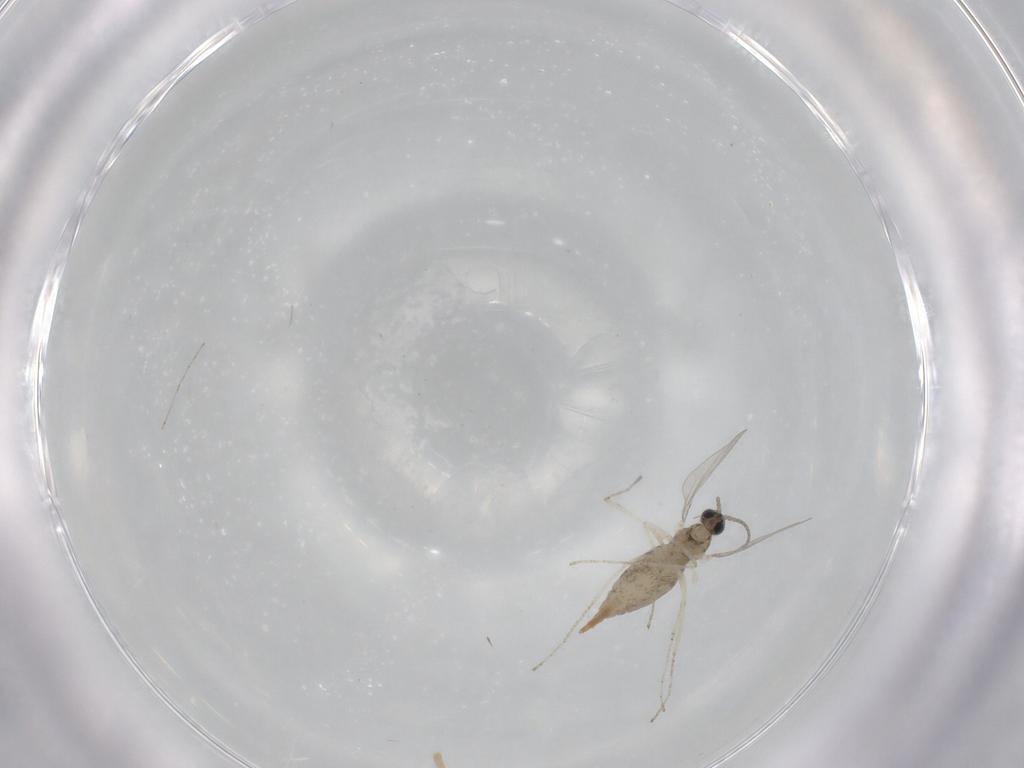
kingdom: Animalia
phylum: Arthropoda
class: Insecta
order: Diptera
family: Cecidomyiidae
